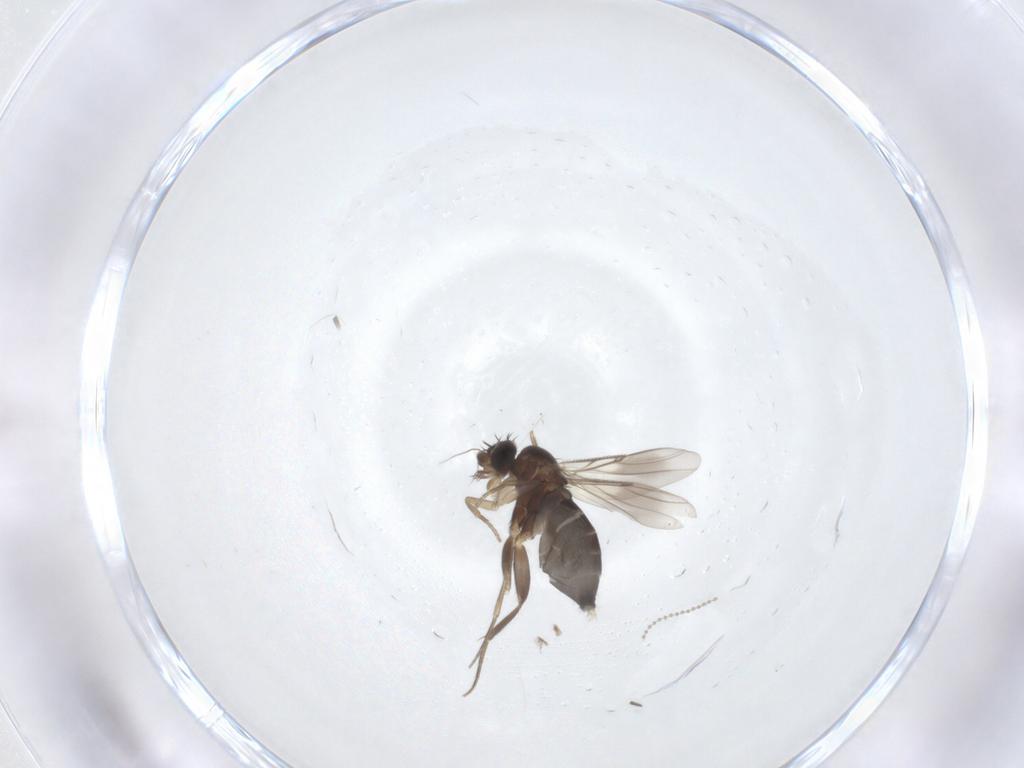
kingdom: Animalia
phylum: Arthropoda
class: Insecta
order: Diptera
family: Phoridae
